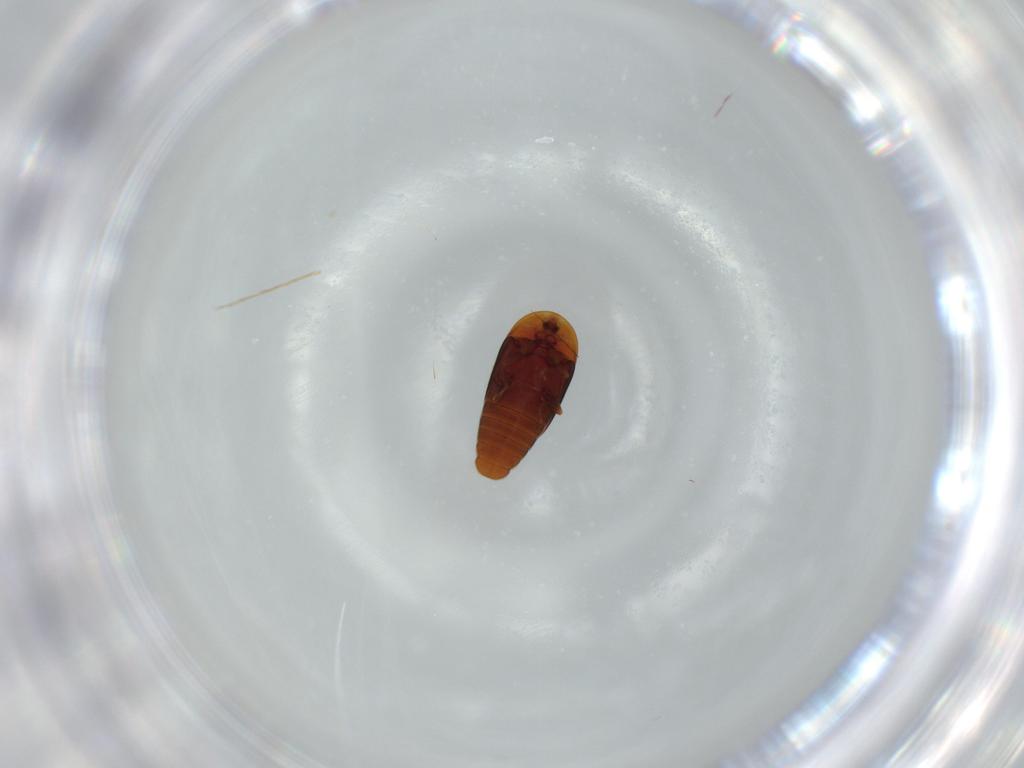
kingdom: Animalia
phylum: Arthropoda
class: Insecta
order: Coleoptera
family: Corylophidae
